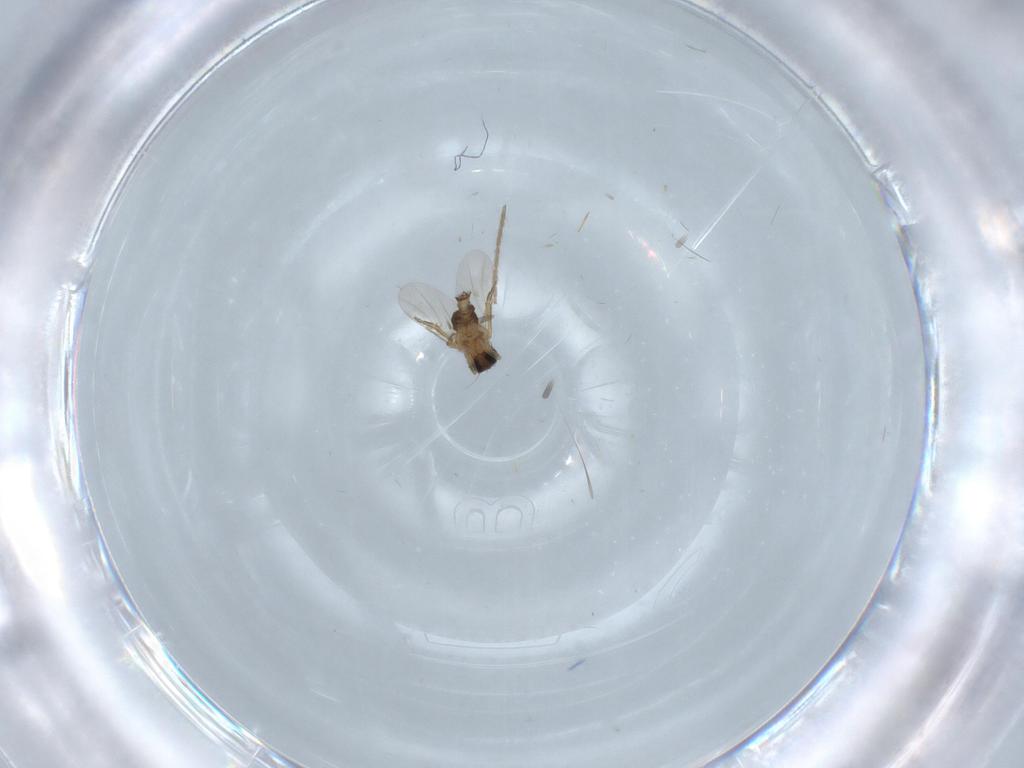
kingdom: Animalia
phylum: Arthropoda
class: Insecta
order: Diptera
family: Chironomidae
